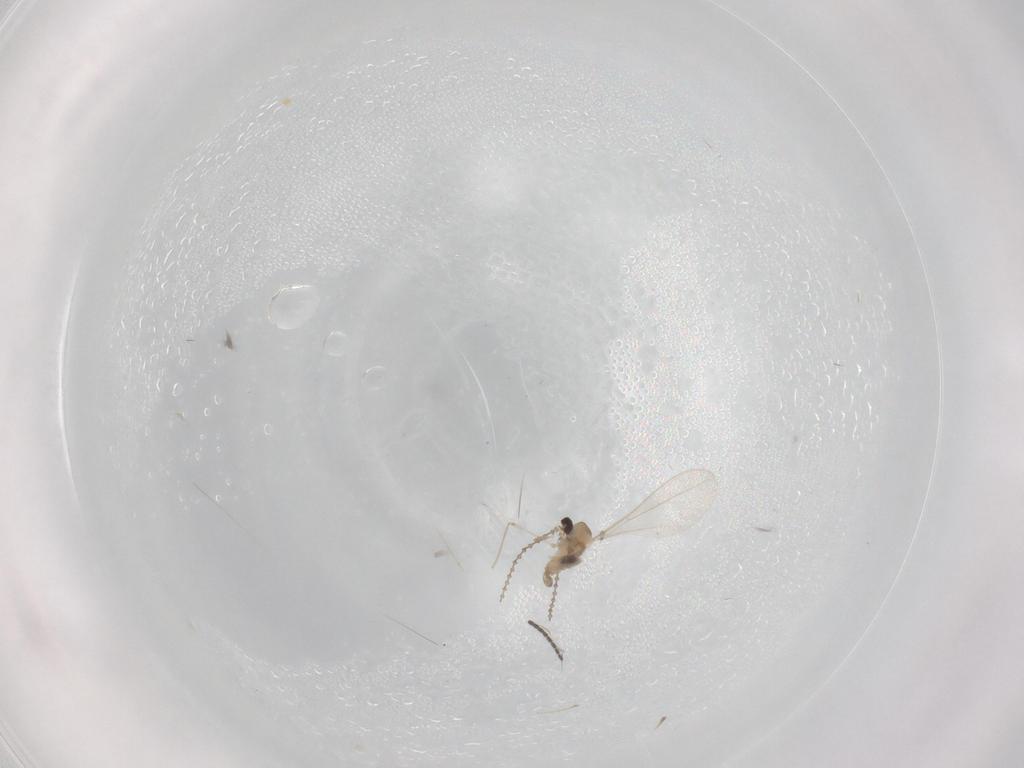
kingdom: Animalia
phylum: Arthropoda
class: Insecta
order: Diptera
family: Cecidomyiidae
